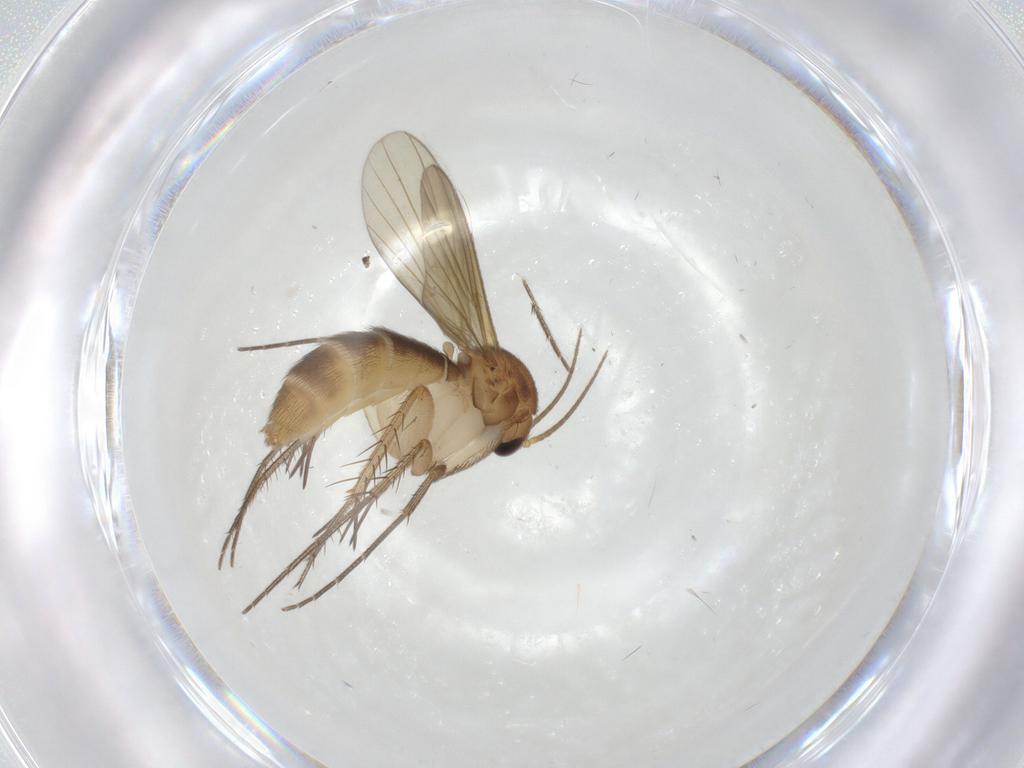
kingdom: Animalia
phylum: Arthropoda
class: Insecta
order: Diptera
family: Mycetophilidae
